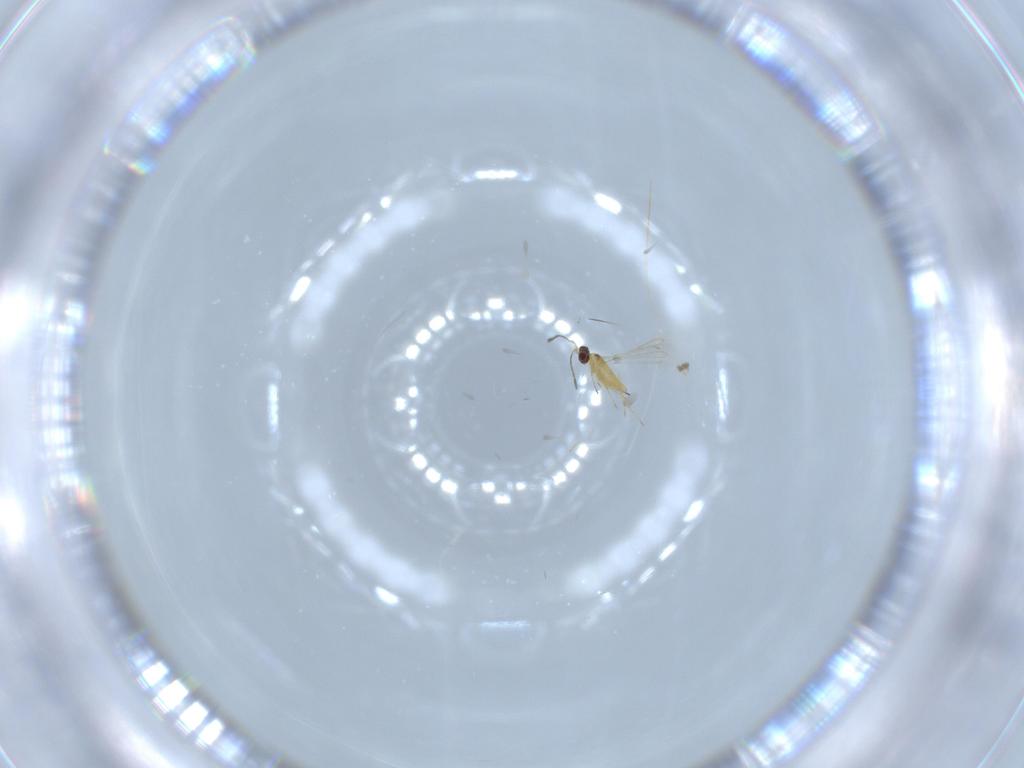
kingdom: Animalia
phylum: Arthropoda
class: Insecta
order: Hymenoptera
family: Mymaridae
